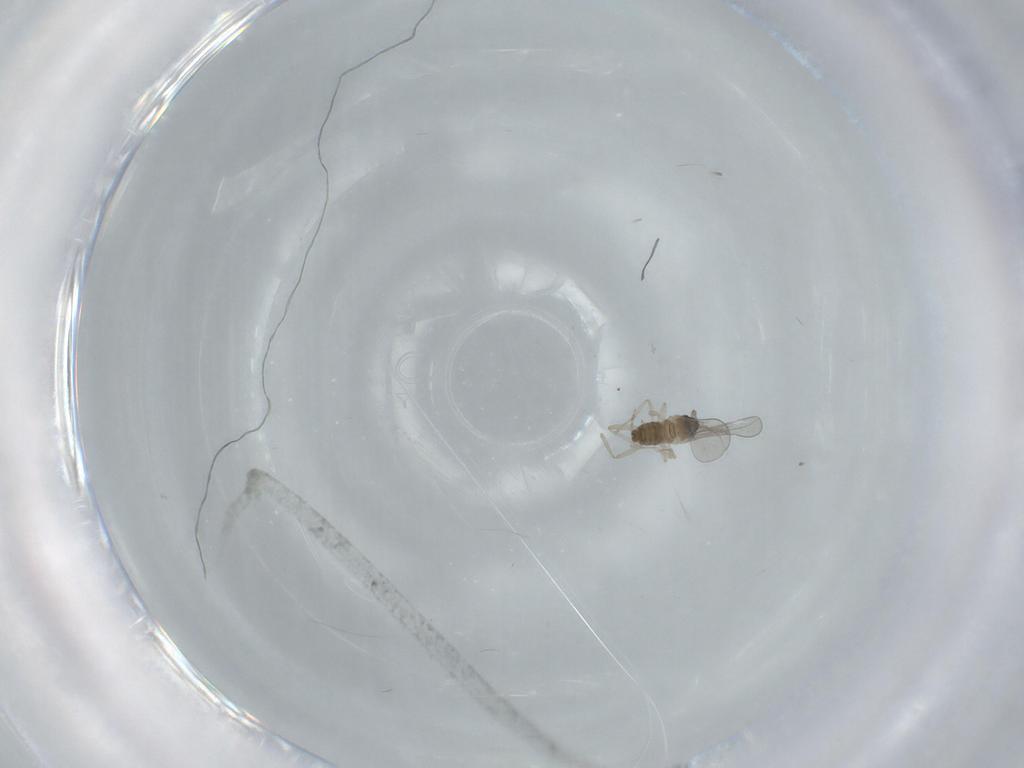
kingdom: Animalia
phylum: Arthropoda
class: Insecta
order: Diptera
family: Cecidomyiidae
